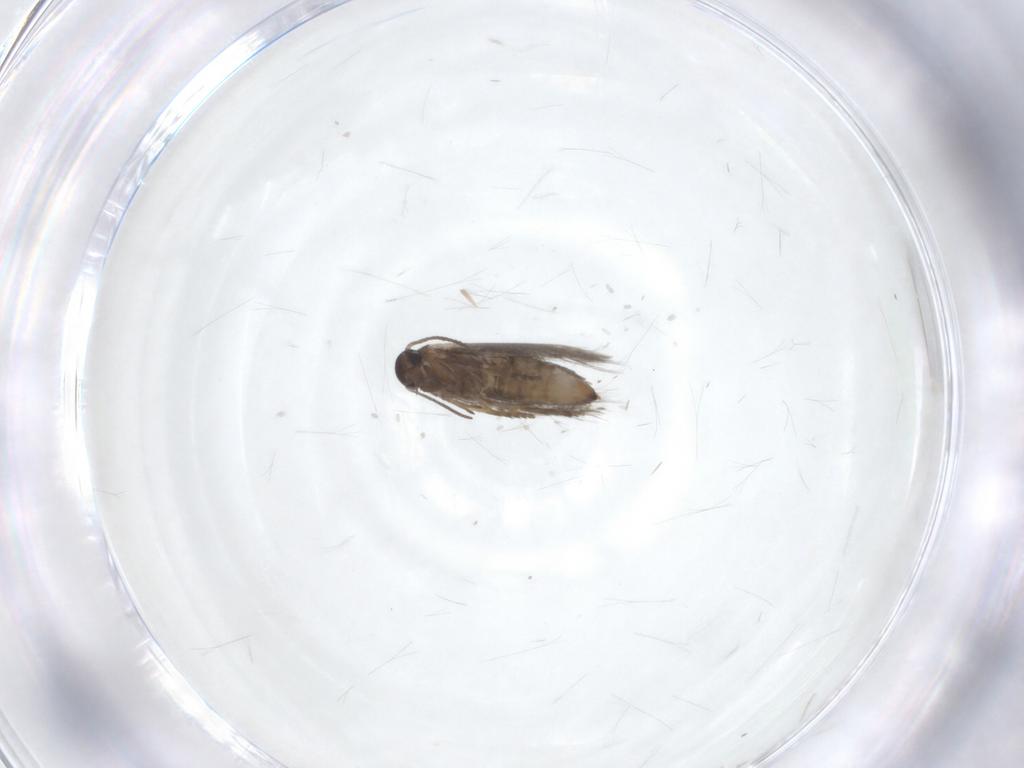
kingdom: Animalia
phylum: Arthropoda
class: Insecta
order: Lepidoptera
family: Heliozelidae
